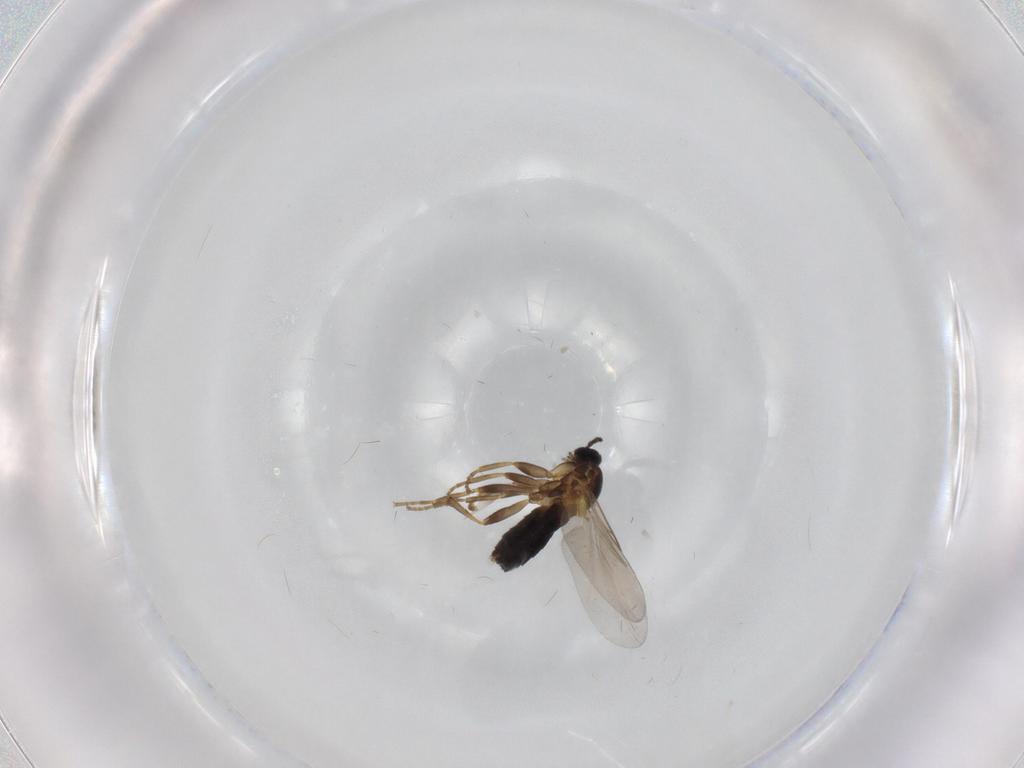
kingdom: Animalia
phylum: Arthropoda
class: Insecta
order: Diptera
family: Scatopsidae
